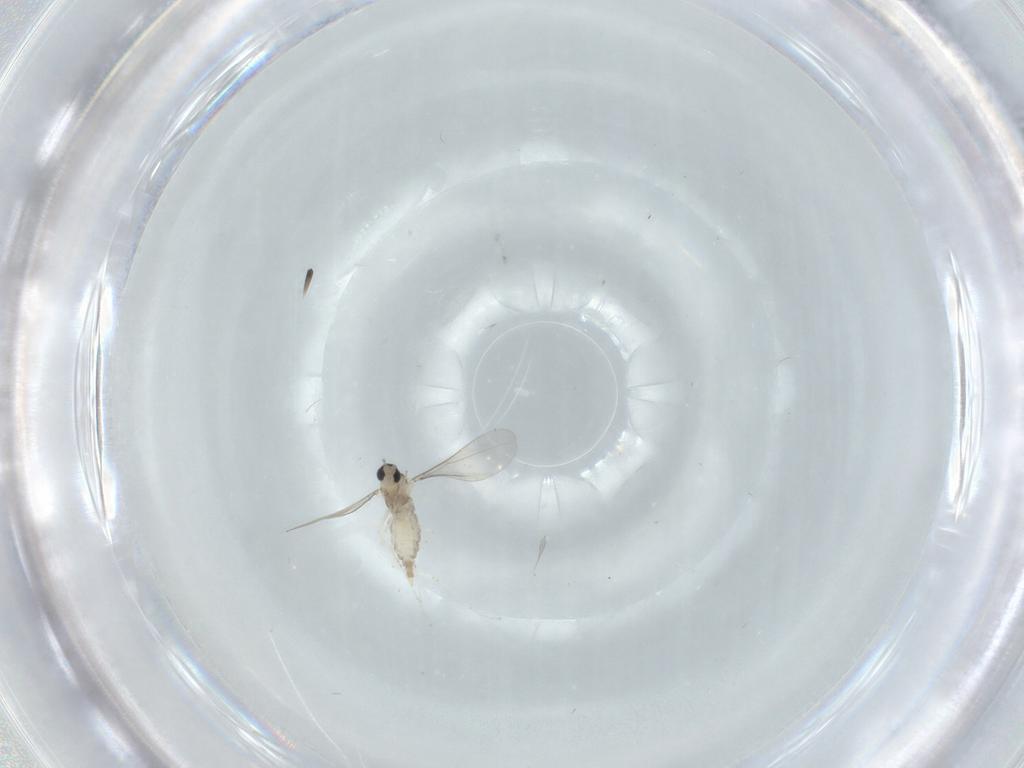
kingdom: Animalia
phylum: Arthropoda
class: Insecta
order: Diptera
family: Cecidomyiidae
